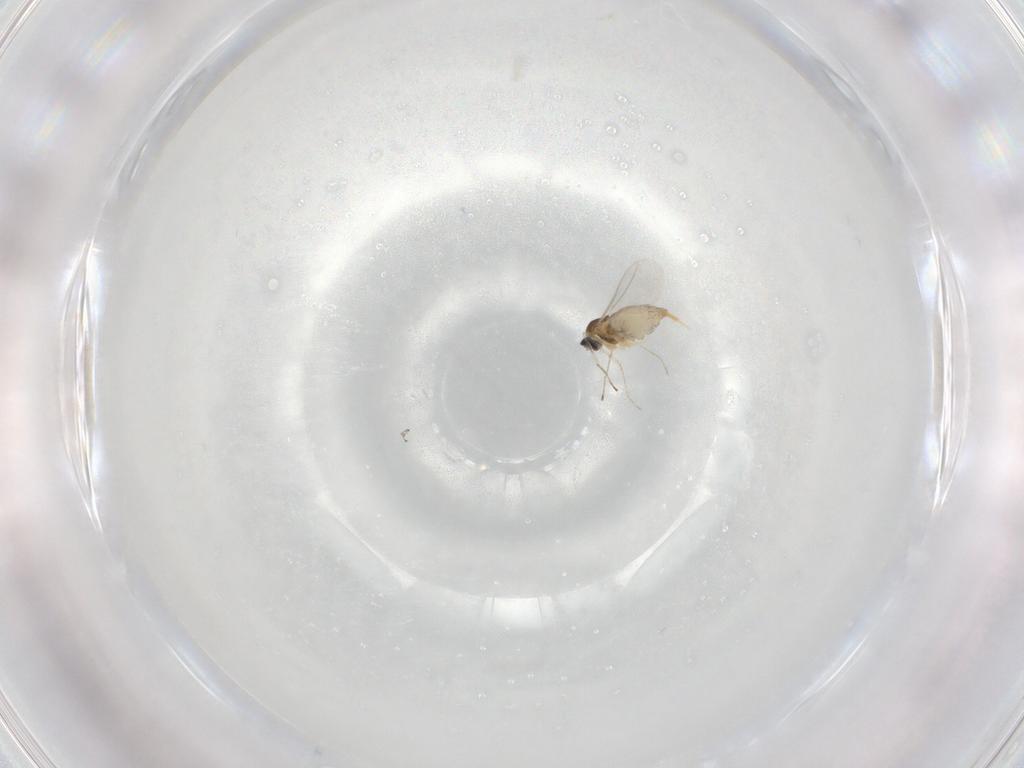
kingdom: Animalia
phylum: Arthropoda
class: Insecta
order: Diptera
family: Cecidomyiidae
